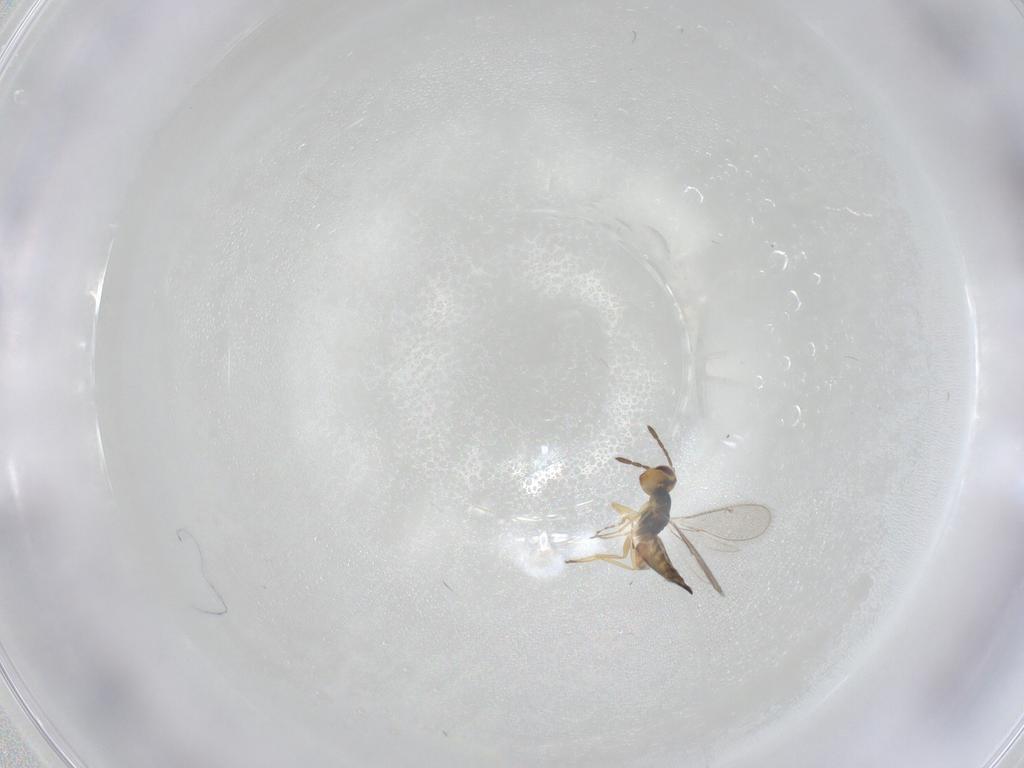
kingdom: Animalia
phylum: Arthropoda
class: Insecta
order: Hymenoptera
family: Eulophidae
